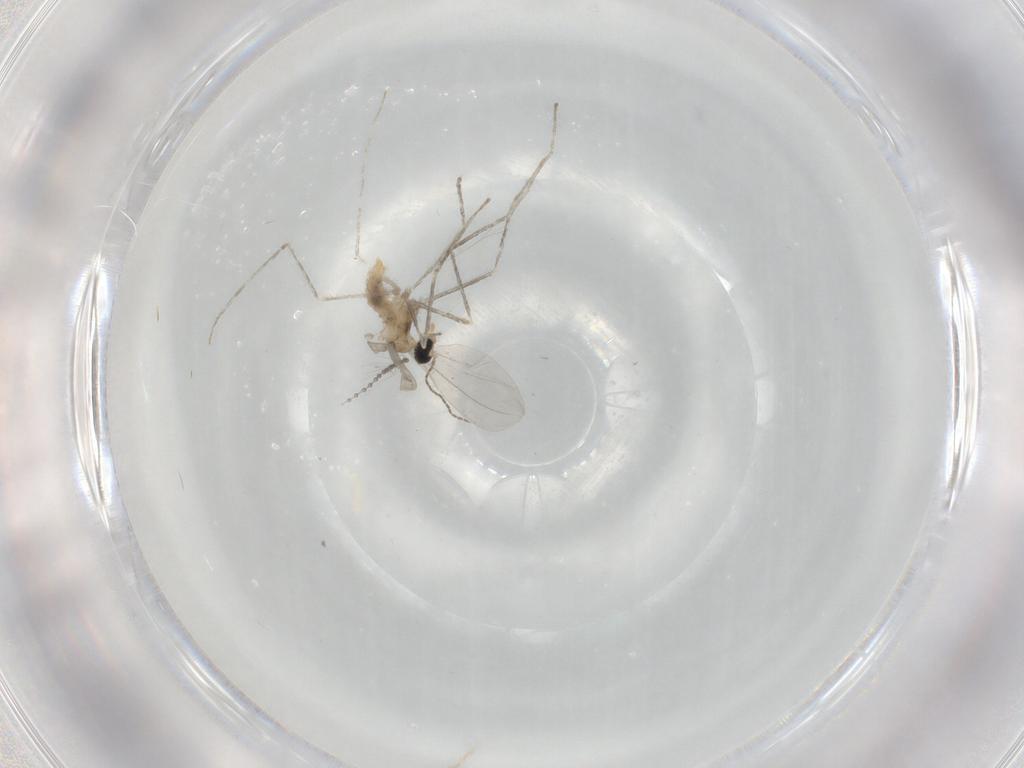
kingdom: Animalia
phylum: Arthropoda
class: Insecta
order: Diptera
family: Cecidomyiidae
